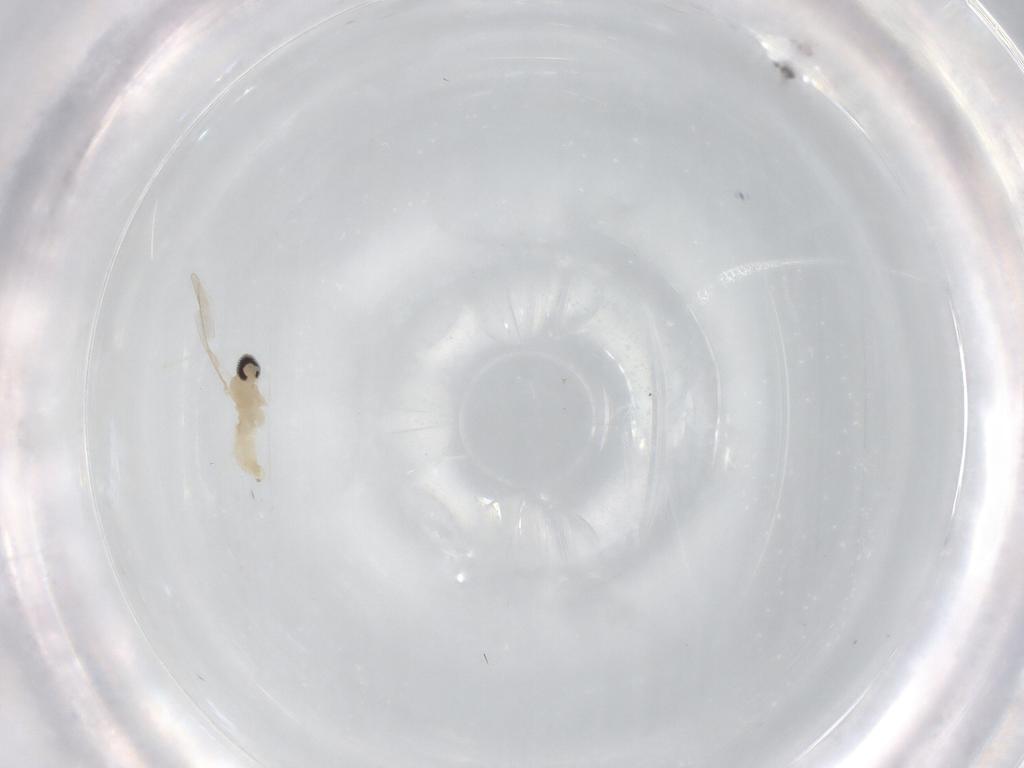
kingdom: Animalia
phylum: Arthropoda
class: Insecta
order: Diptera
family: Cecidomyiidae
